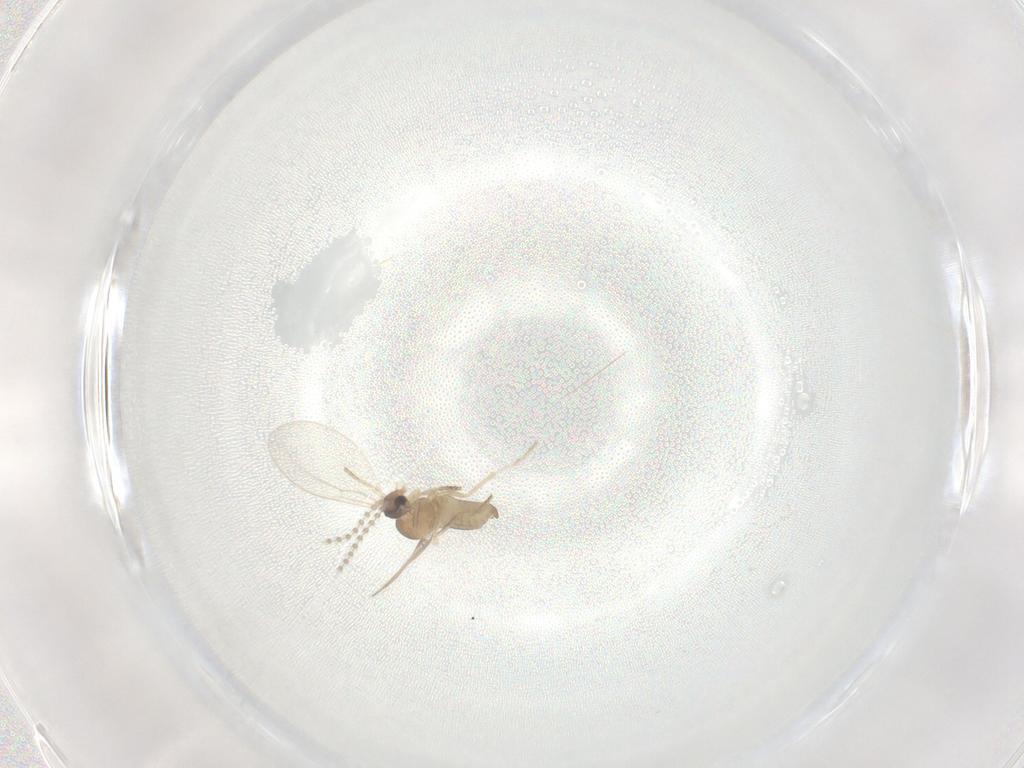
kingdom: Animalia
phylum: Arthropoda
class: Insecta
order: Diptera
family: Cecidomyiidae
